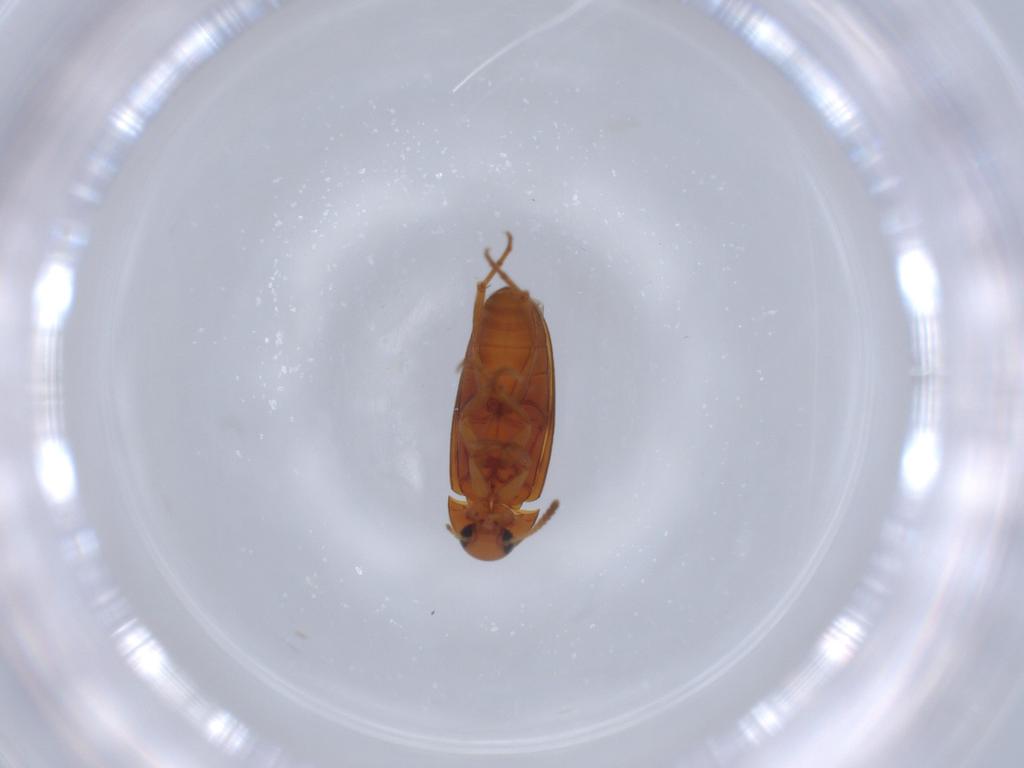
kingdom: Animalia
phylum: Arthropoda
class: Insecta
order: Coleoptera
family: Scraptiidae
